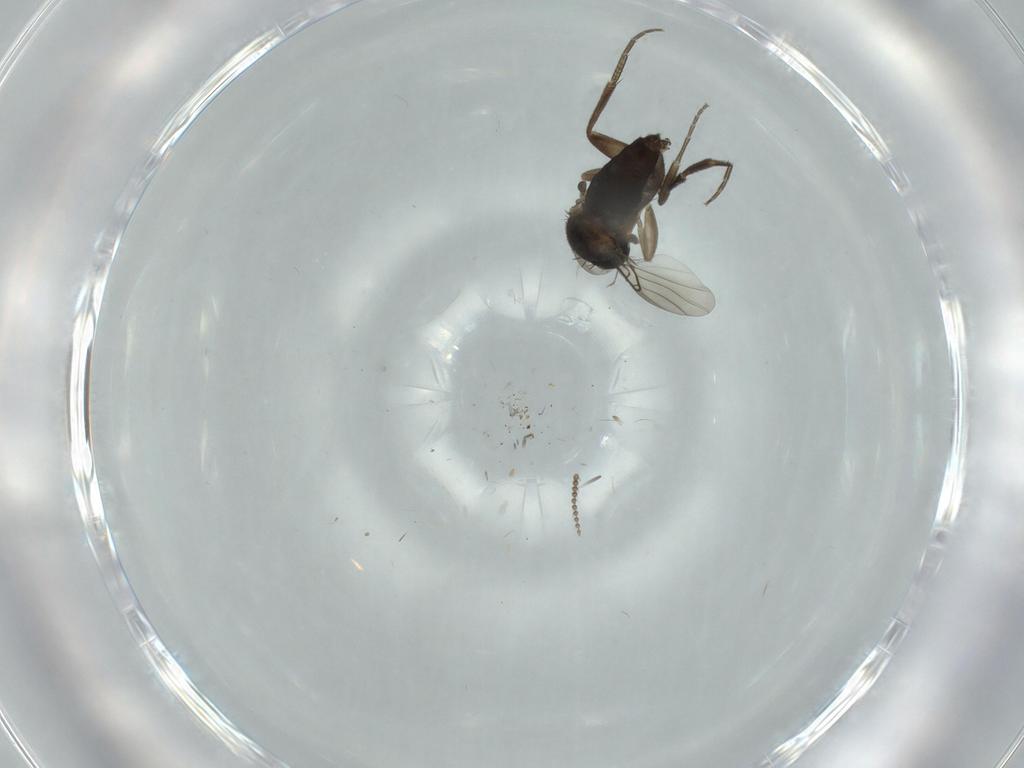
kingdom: Animalia
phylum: Arthropoda
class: Insecta
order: Diptera
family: Phoridae
